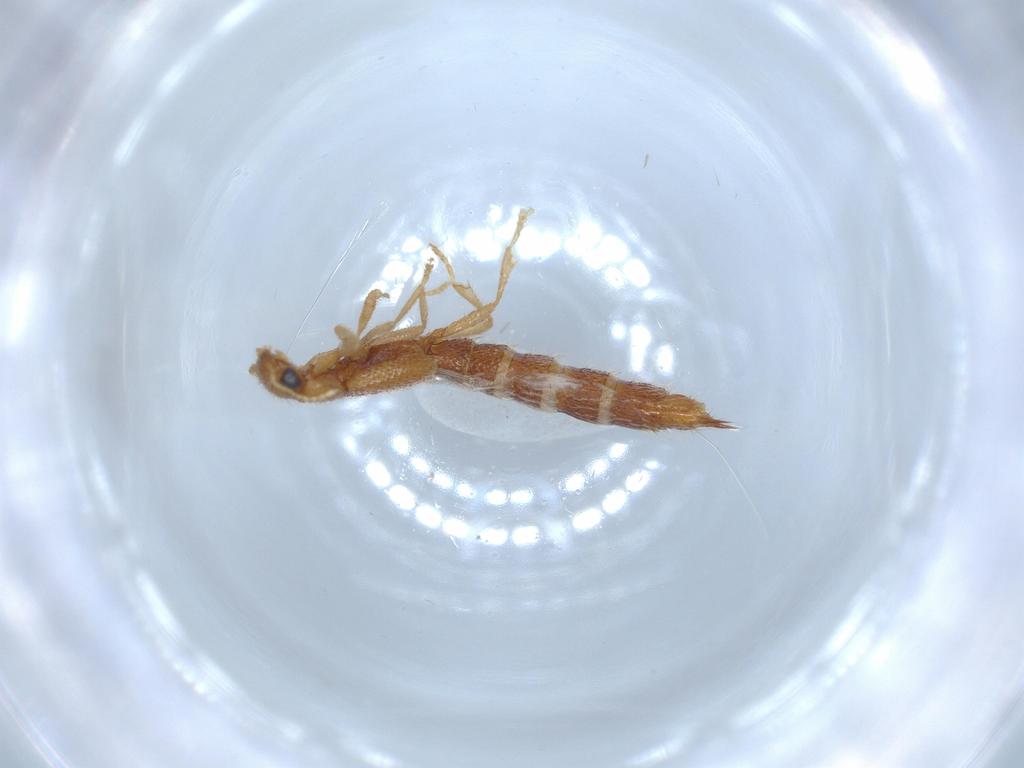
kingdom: Animalia
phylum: Arthropoda
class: Insecta
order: Coleoptera
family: Staphylinidae
